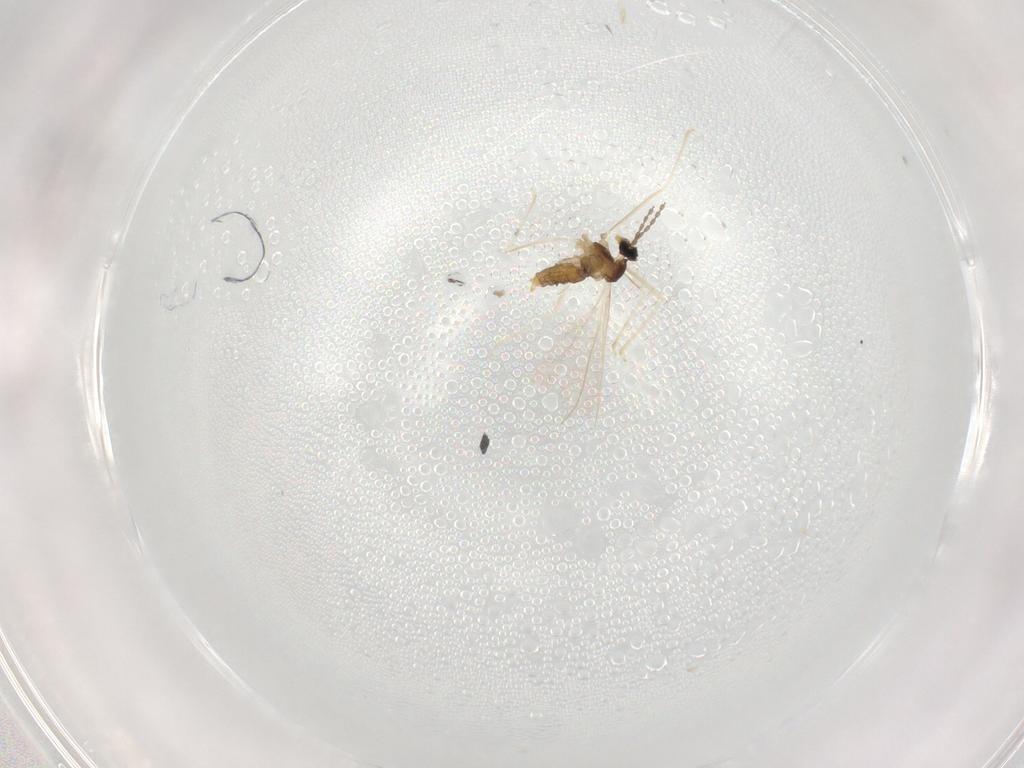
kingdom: Animalia
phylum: Arthropoda
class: Insecta
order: Diptera
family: Cecidomyiidae
